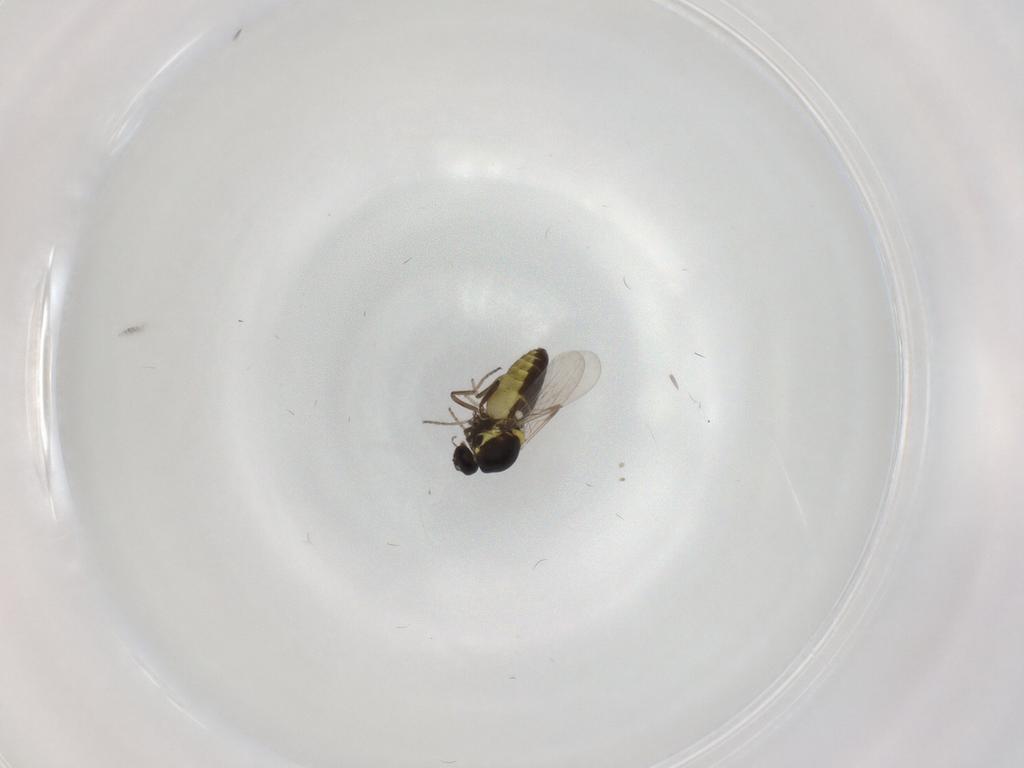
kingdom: Animalia
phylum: Arthropoda
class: Insecta
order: Diptera
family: Ceratopogonidae
